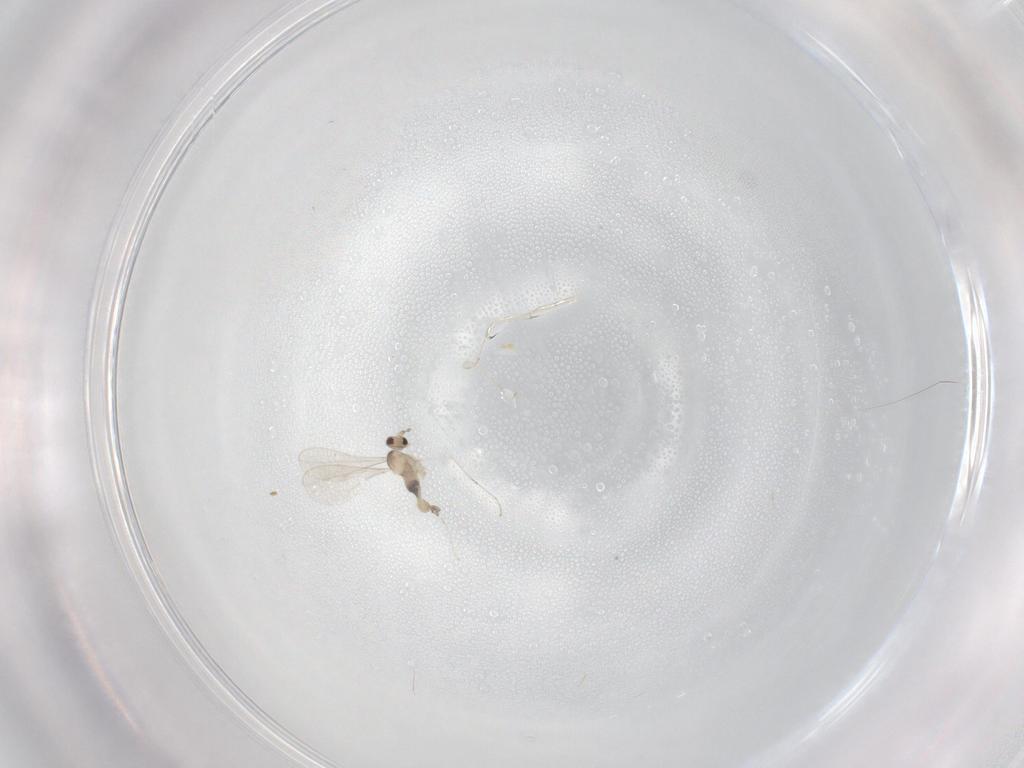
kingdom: Animalia
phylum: Arthropoda
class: Insecta
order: Diptera
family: Cecidomyiidae
